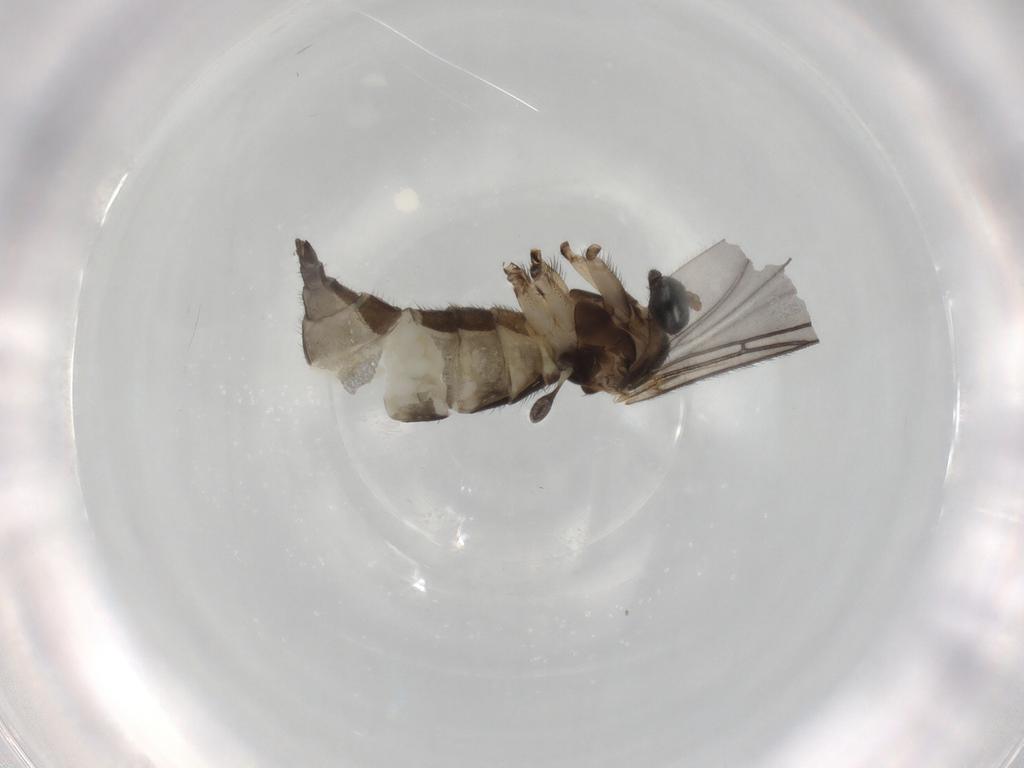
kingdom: Animalia
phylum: Arthropoda
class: Insecta
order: Diptera
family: Sciaridae
